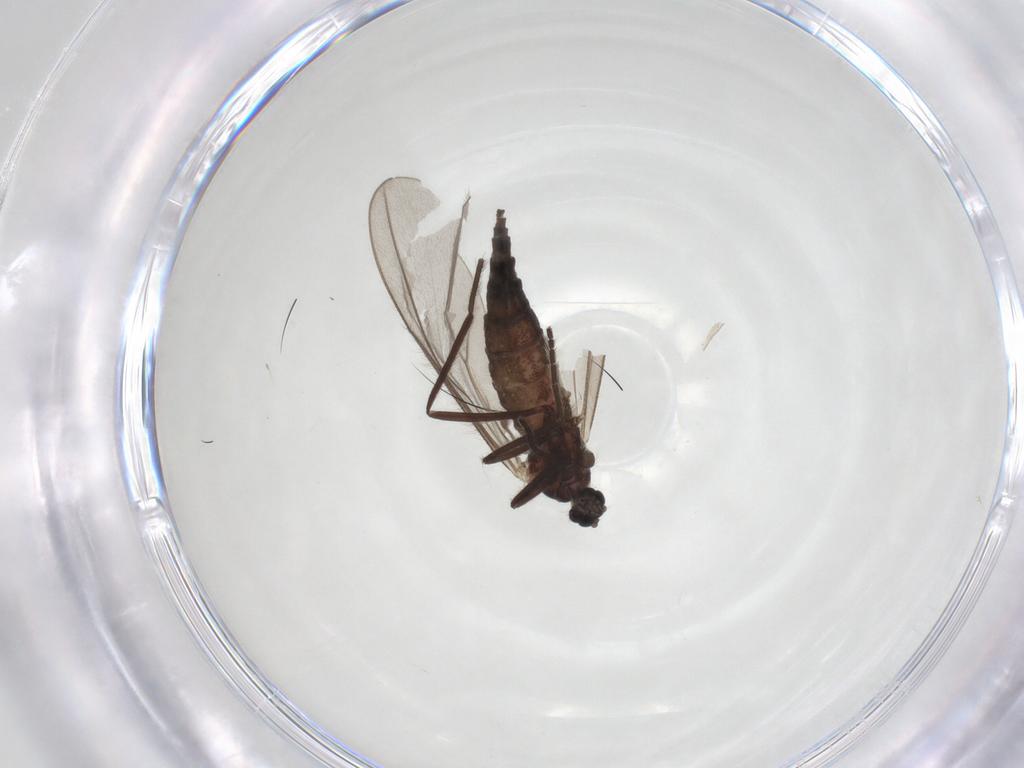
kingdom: Animalia
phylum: Arthropoda
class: Insecta
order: Diptera
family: Sciaridae
